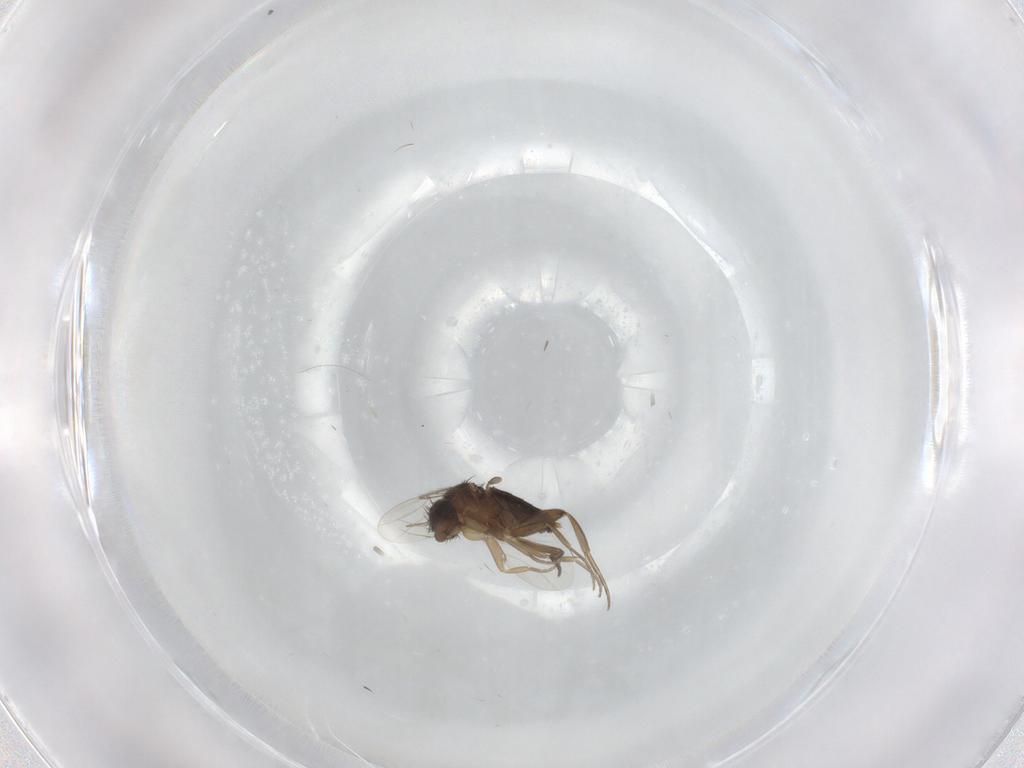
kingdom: Animalia
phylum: Arthropoda
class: Insecta
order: Diptera
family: Phoridae
